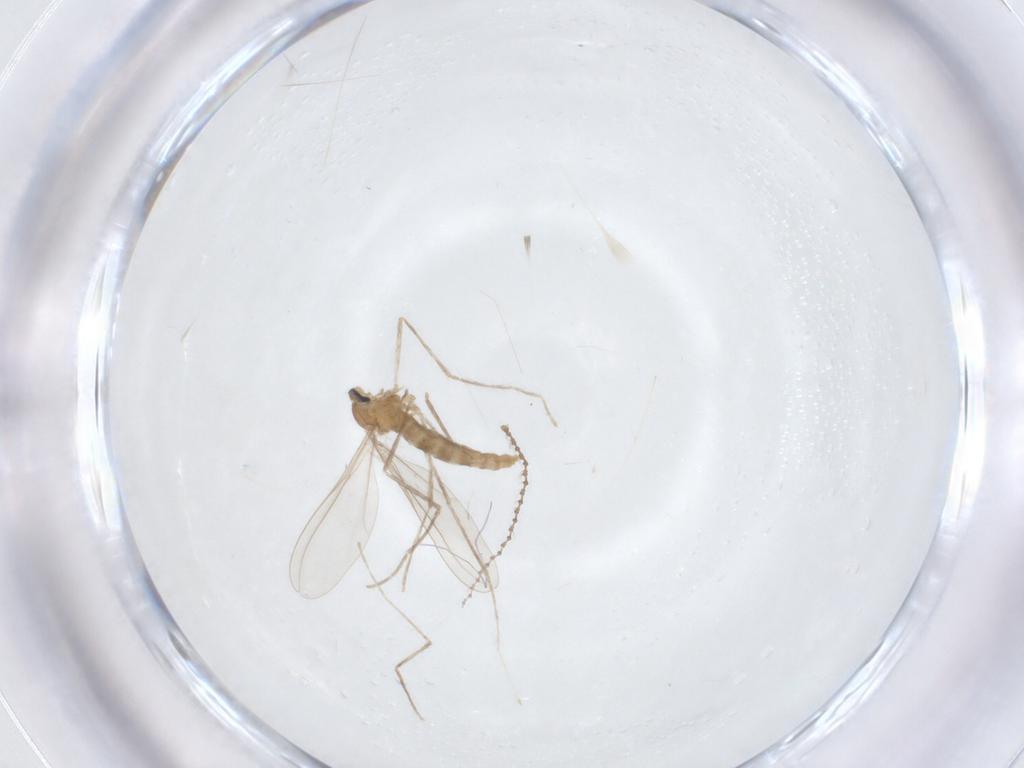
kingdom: Animalia
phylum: Arthropoda
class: Insecta
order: Diptera
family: Cecidomyiidae
